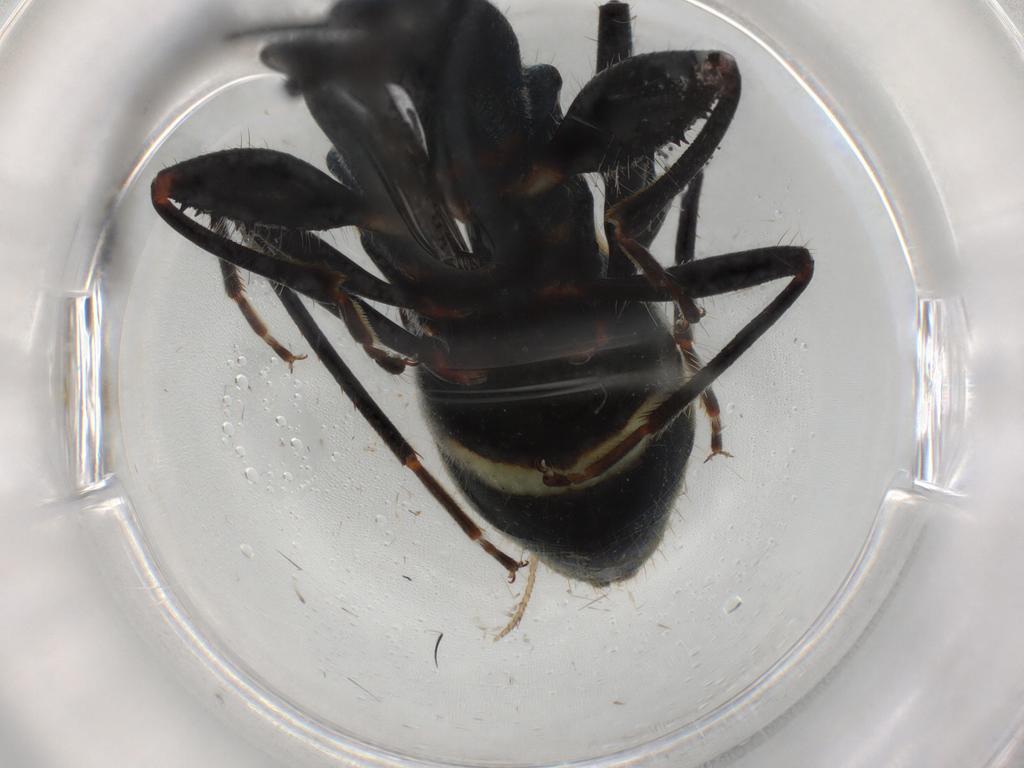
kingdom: Animalia
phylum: Arthropoda
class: Insecta
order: Hemiptera
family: Rhyparochromidae
